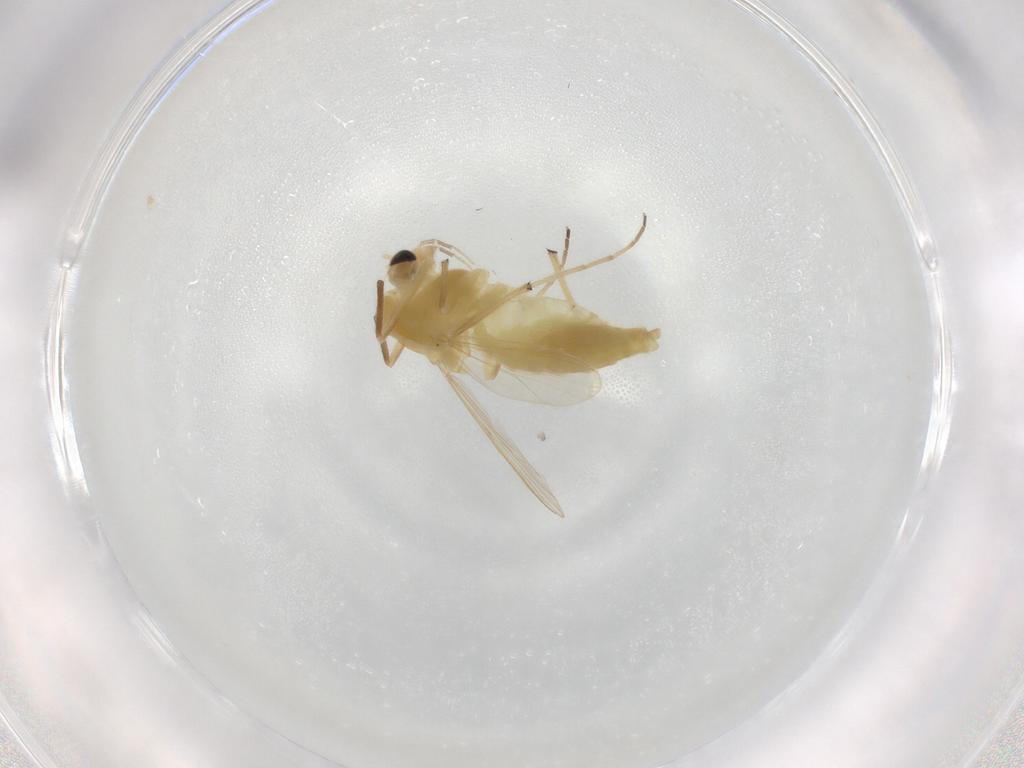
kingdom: Animalia
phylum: Arthropoda
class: Insecta
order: Diptera
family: Chironomidae
